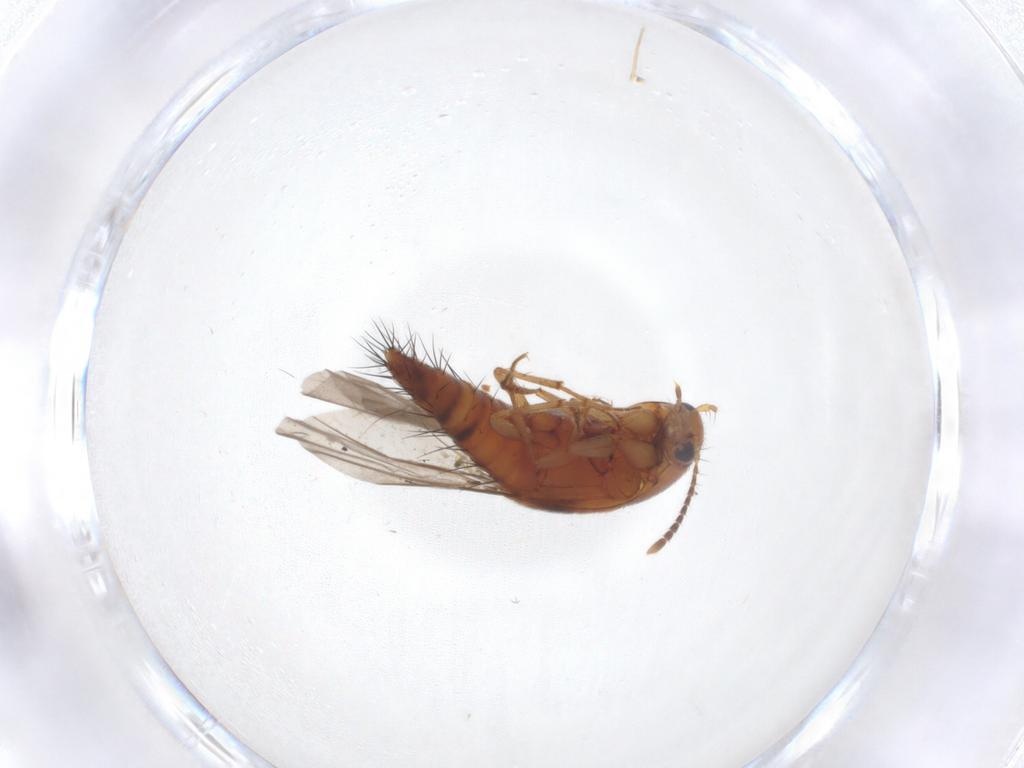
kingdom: Animalia
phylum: Arthropoda
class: Insecta
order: Coleoptera
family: Staphylinidae
